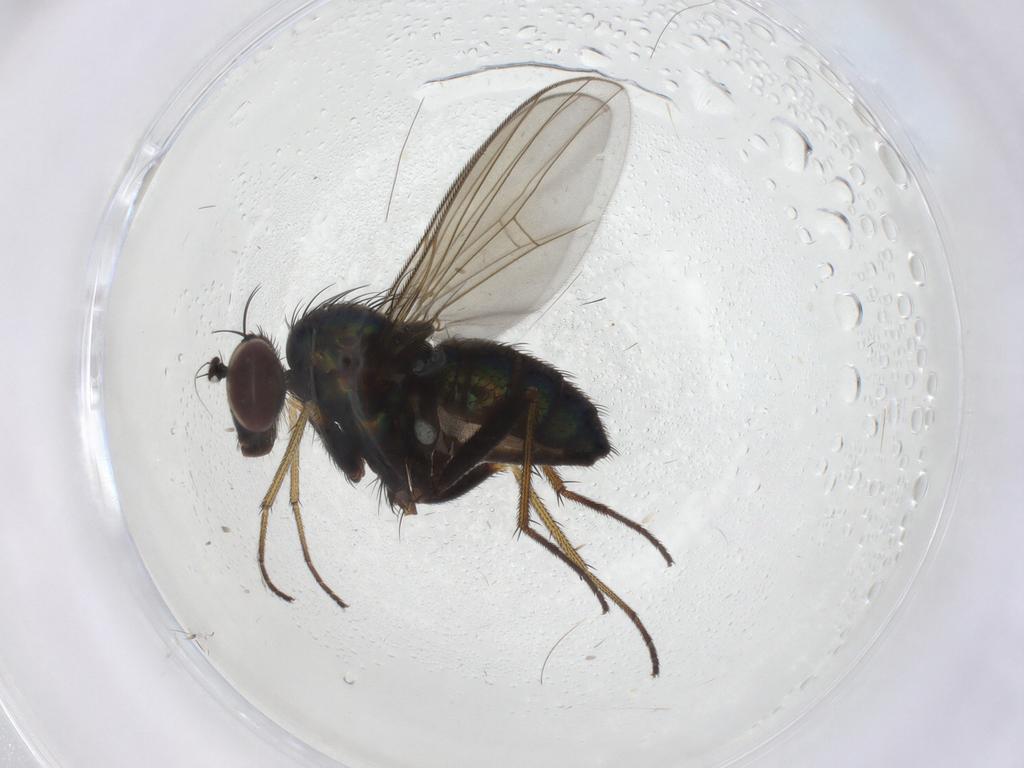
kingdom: Animalia
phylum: Arthropoda
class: Insecta
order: Diptera
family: Dolichopodidae
